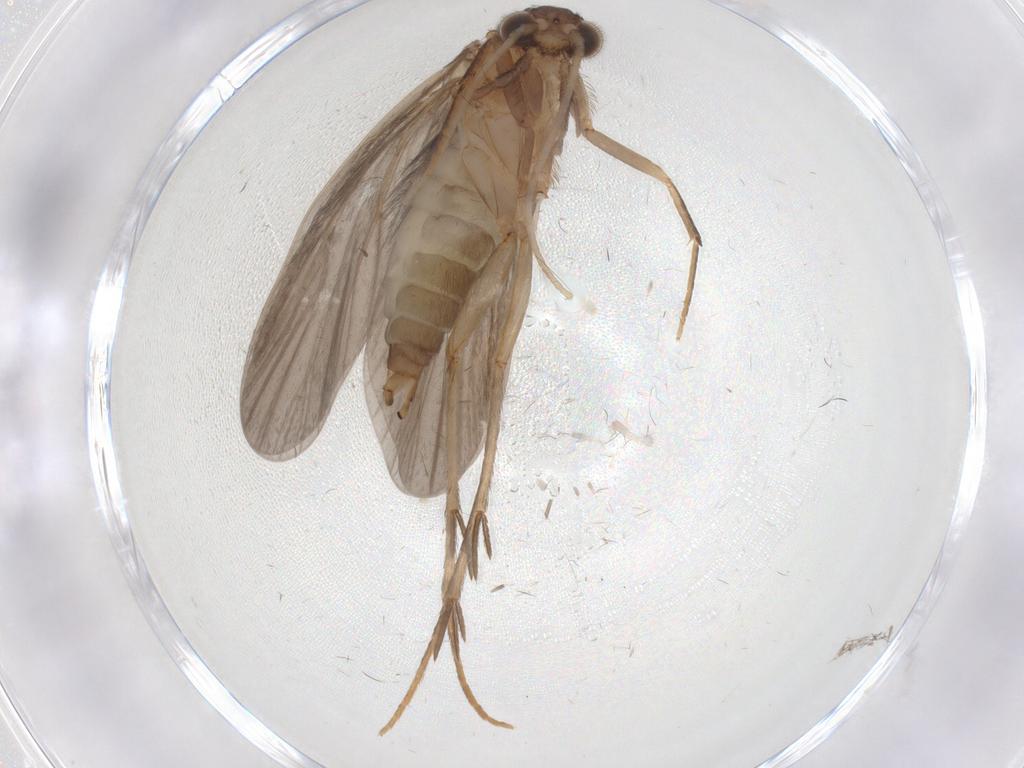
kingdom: Animalia
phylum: Arthropoda
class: Insecta
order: Trichoptera
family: Philopotamidae
